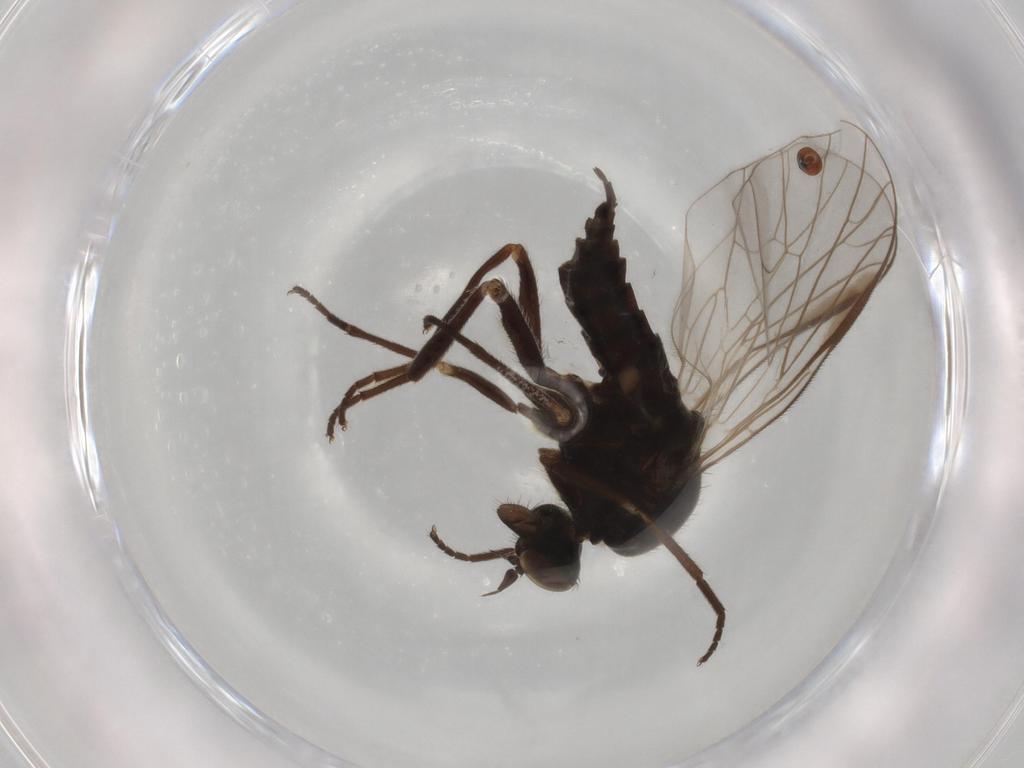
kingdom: Animalia
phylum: Arthropoda
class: Insecta
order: Diptera
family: Empididae
